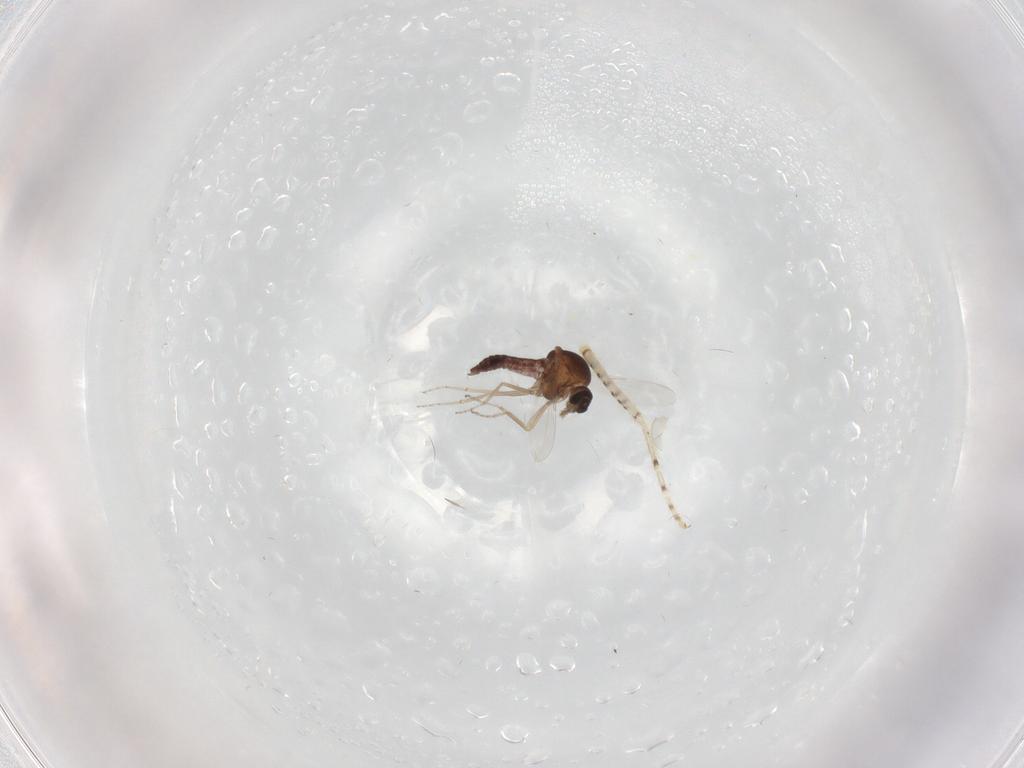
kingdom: Animalia
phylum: Arthropoda
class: Insecta
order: Diptera
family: Ceratopogonidae
